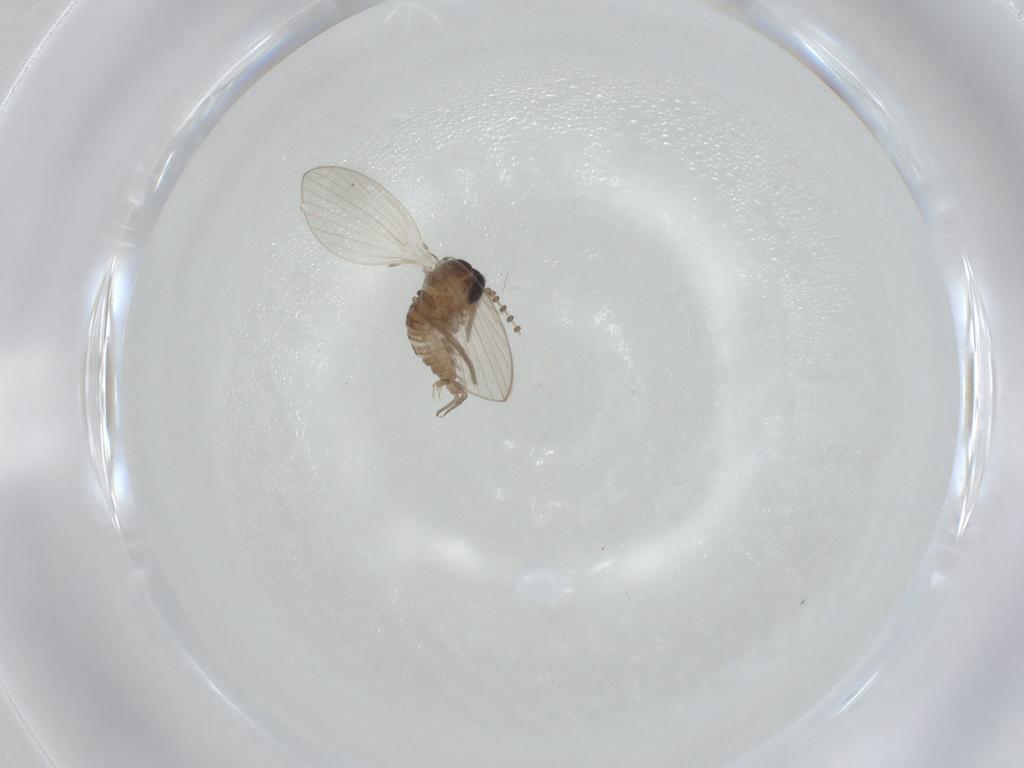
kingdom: Animalia
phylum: Arthropoda
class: Insecta
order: Diptera
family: Psychodidae
